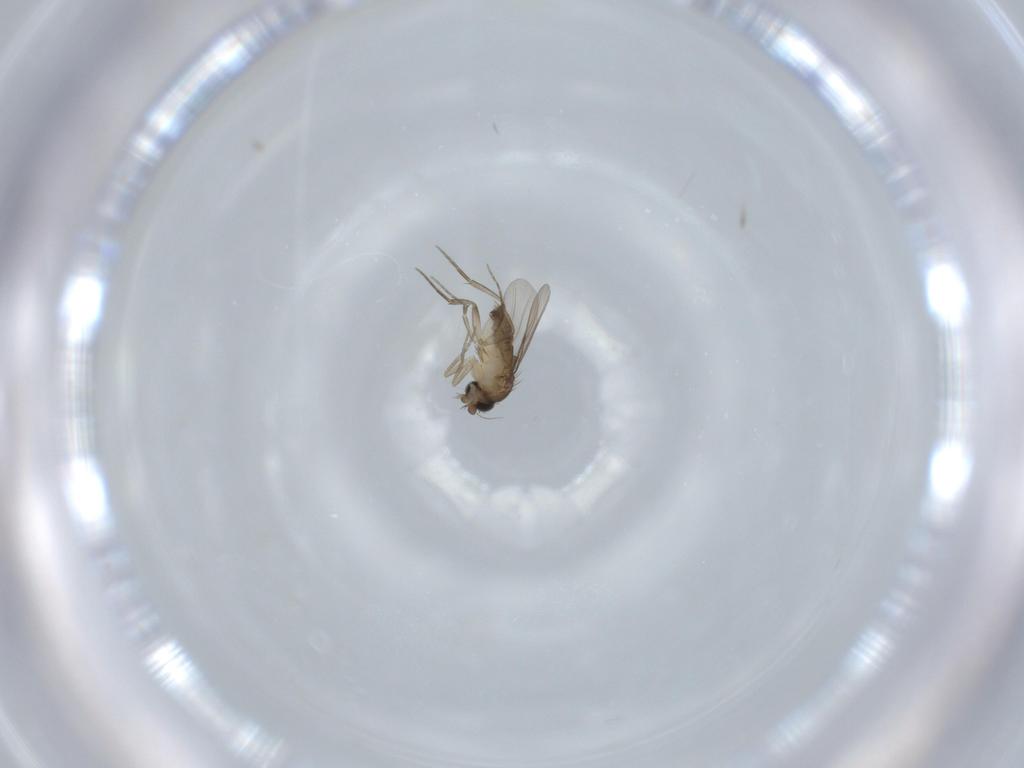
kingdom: Animalia
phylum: Arthropoda
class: Insecta
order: Diptera
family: Phoridae
